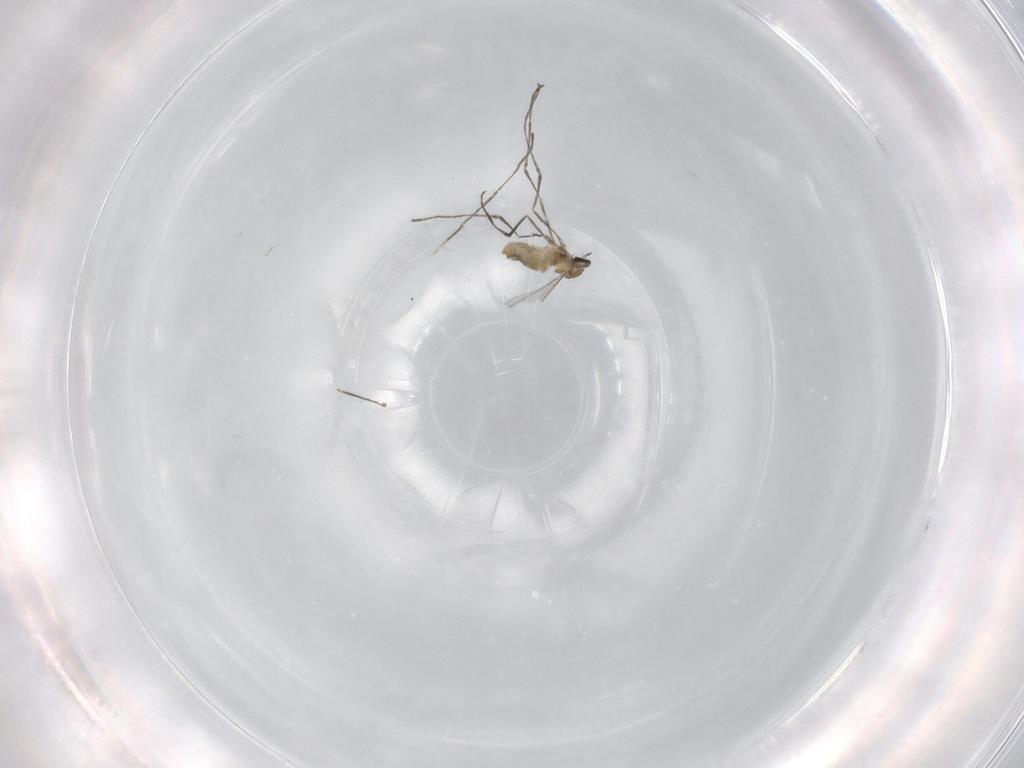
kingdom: Animalia
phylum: Arthropoda
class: Insecta
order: Diptera
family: Cecidomyiidae
